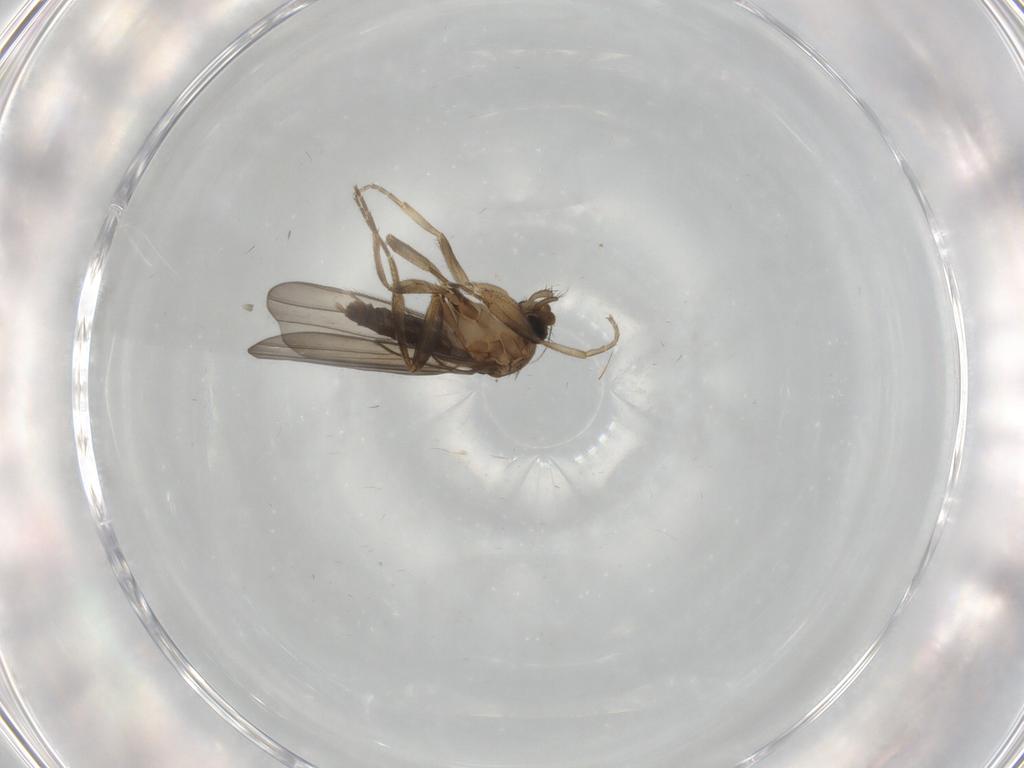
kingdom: Animalia
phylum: Arthropoda
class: Insecta
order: Diptera
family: Phoridae
